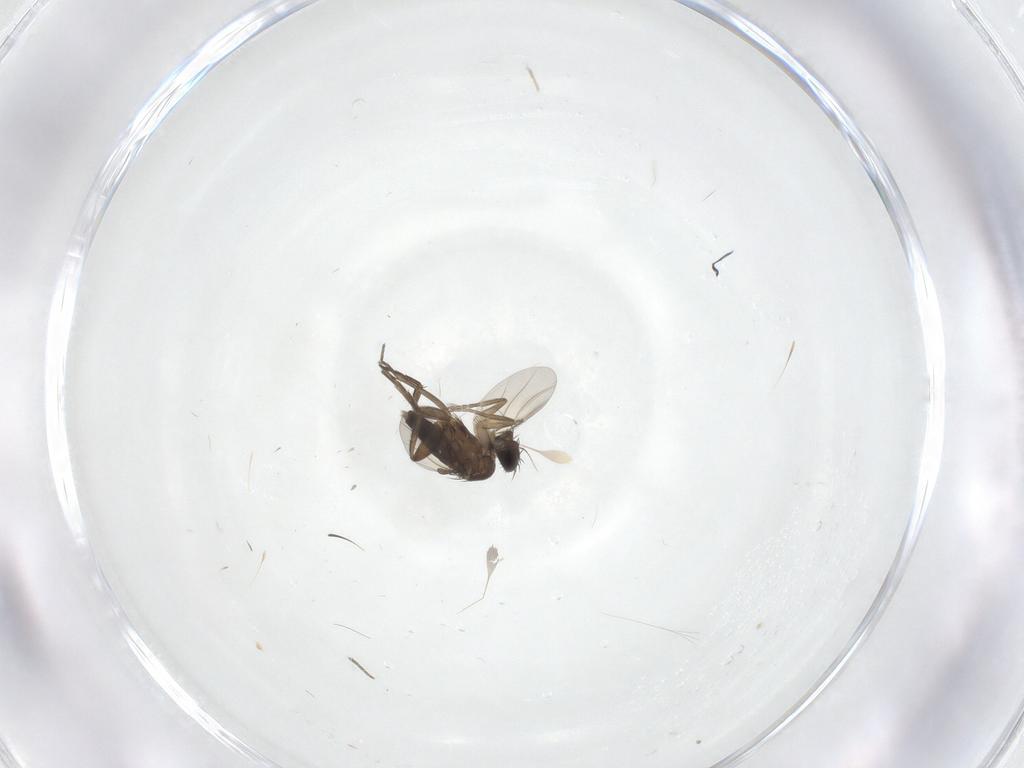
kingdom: Animalia
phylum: Arthropoda
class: Insecta
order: Diptera
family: Phoridae
